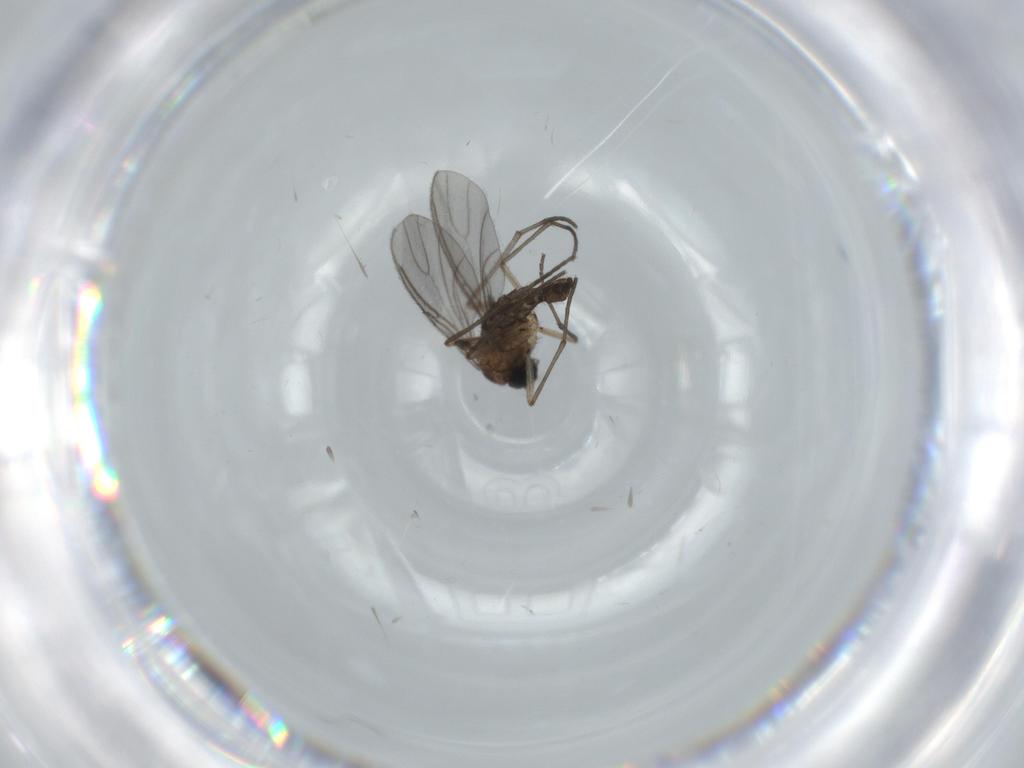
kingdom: Animalia
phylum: Arthropoda
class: Insecta
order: Diptera
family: Sciaridae
